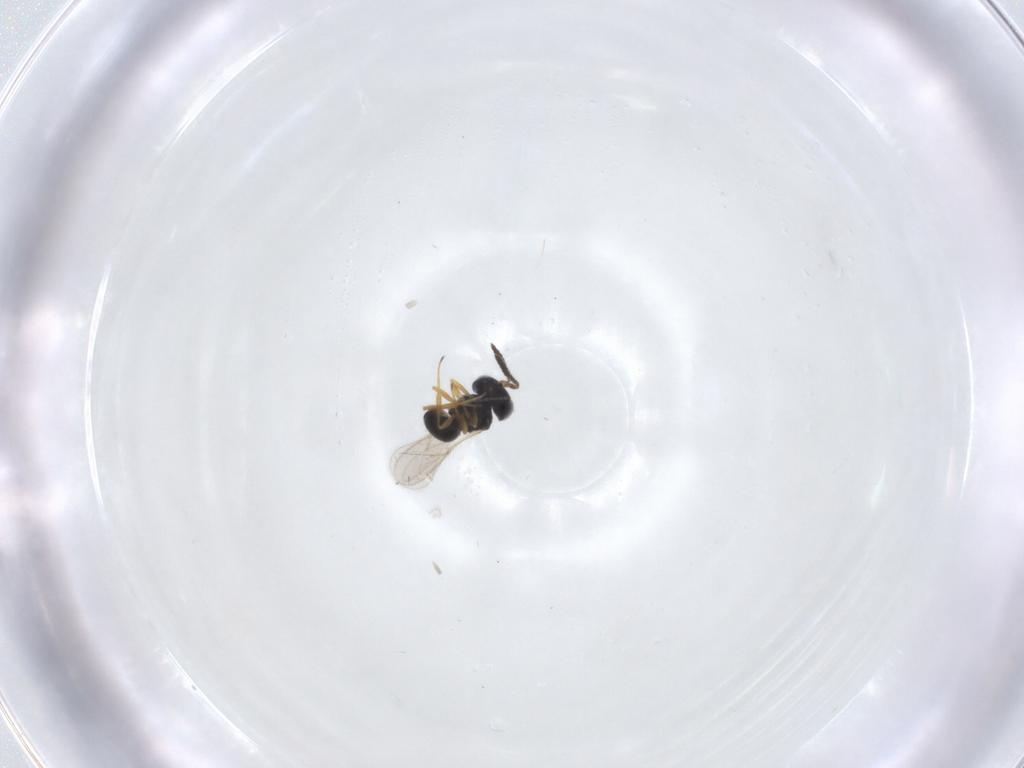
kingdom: Animalia
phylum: Arthropoda
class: Insecta
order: Hymenoptera
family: Scelionidae
